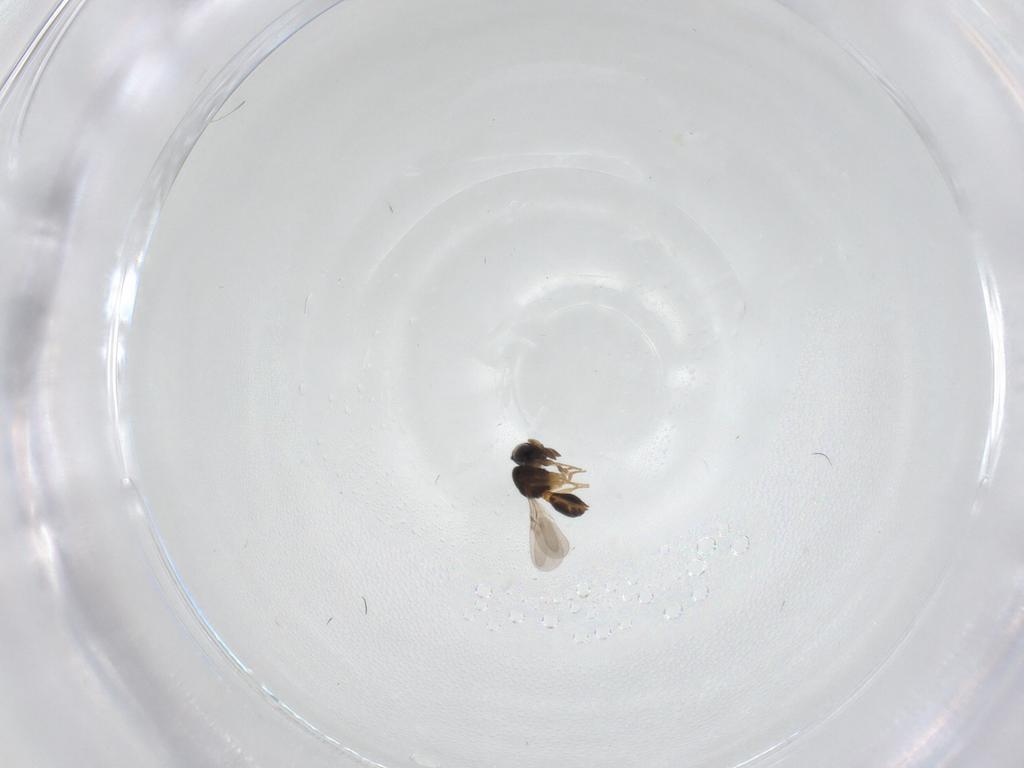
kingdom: Animalia
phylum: Arthropoda
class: Insecta
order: Hymenoptera
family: Scelionidae
